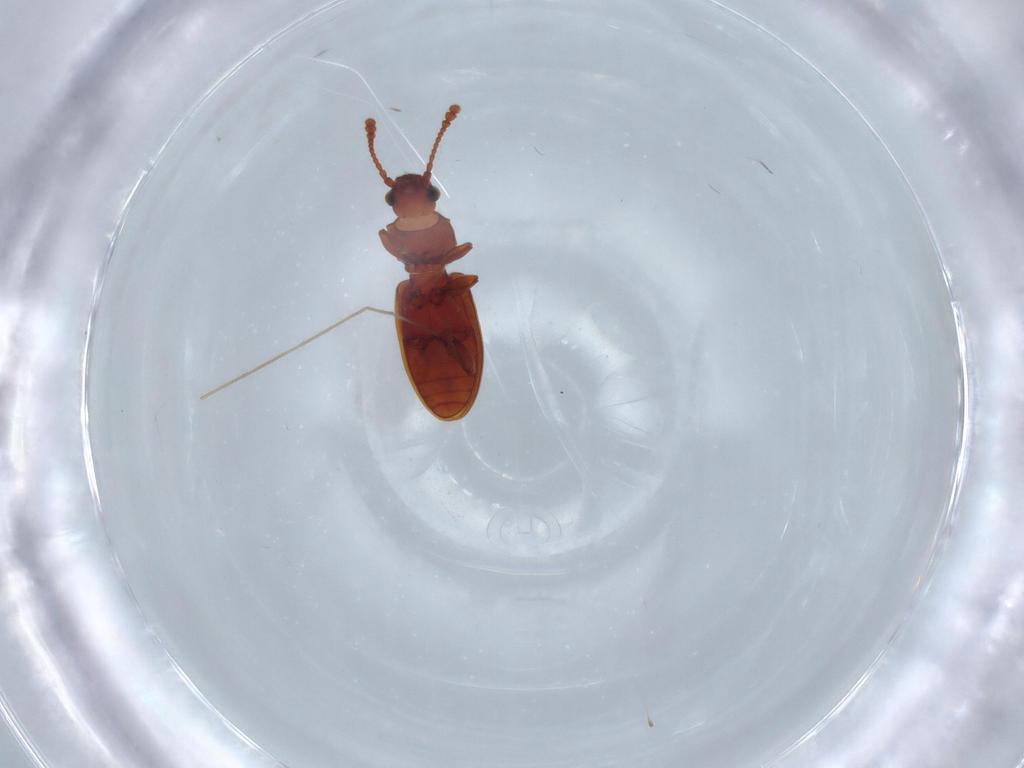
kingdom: Animalia
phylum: Arthropoda
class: Insecta
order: Coleoptera
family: Silvanidae
